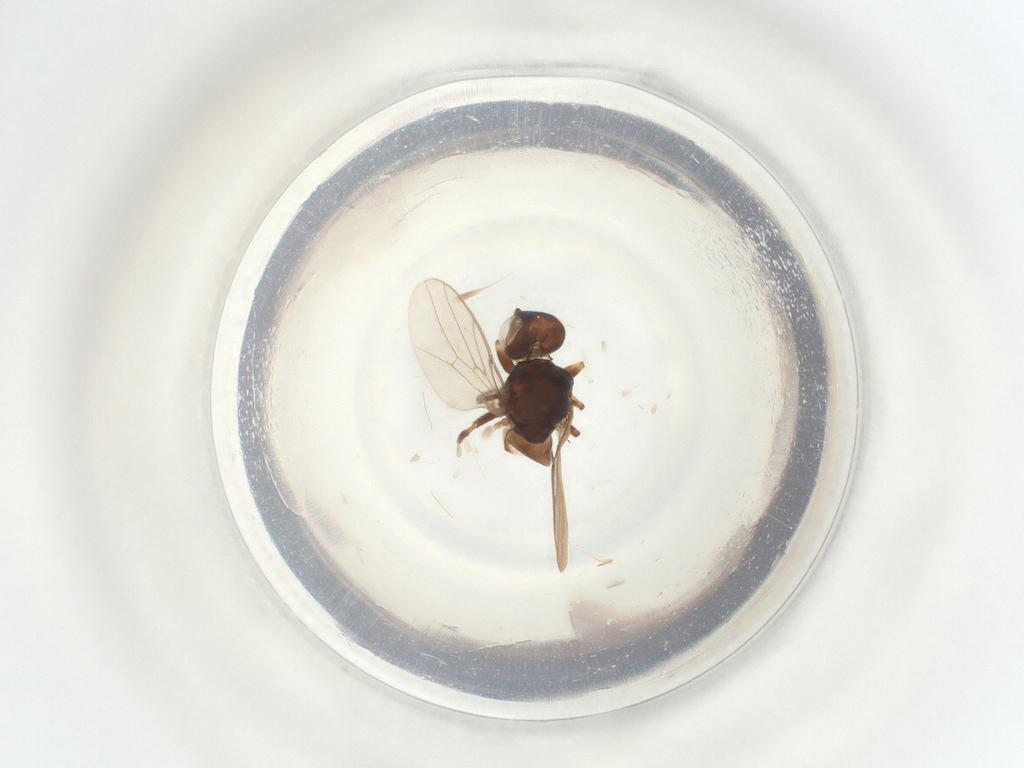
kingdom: Animalia
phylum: Arthropoda
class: Insecta
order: Diptera
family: Chloropidae
